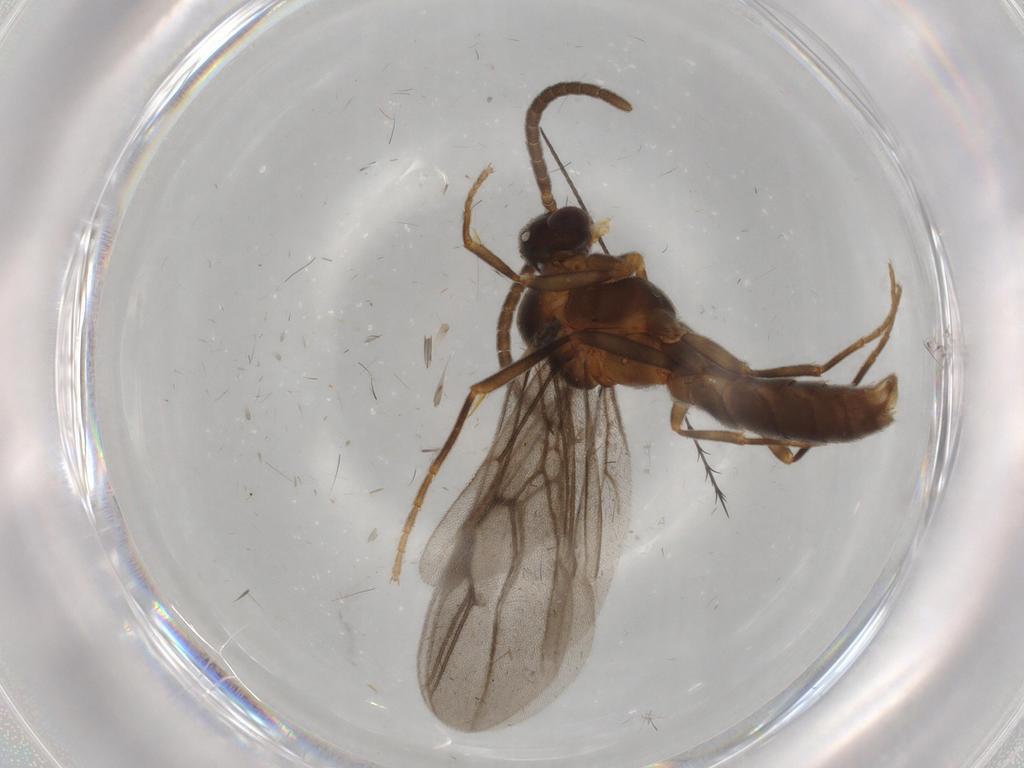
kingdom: Animalia
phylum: Arthropoda
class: Insecta
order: Hymenoptera
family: Formicidae
